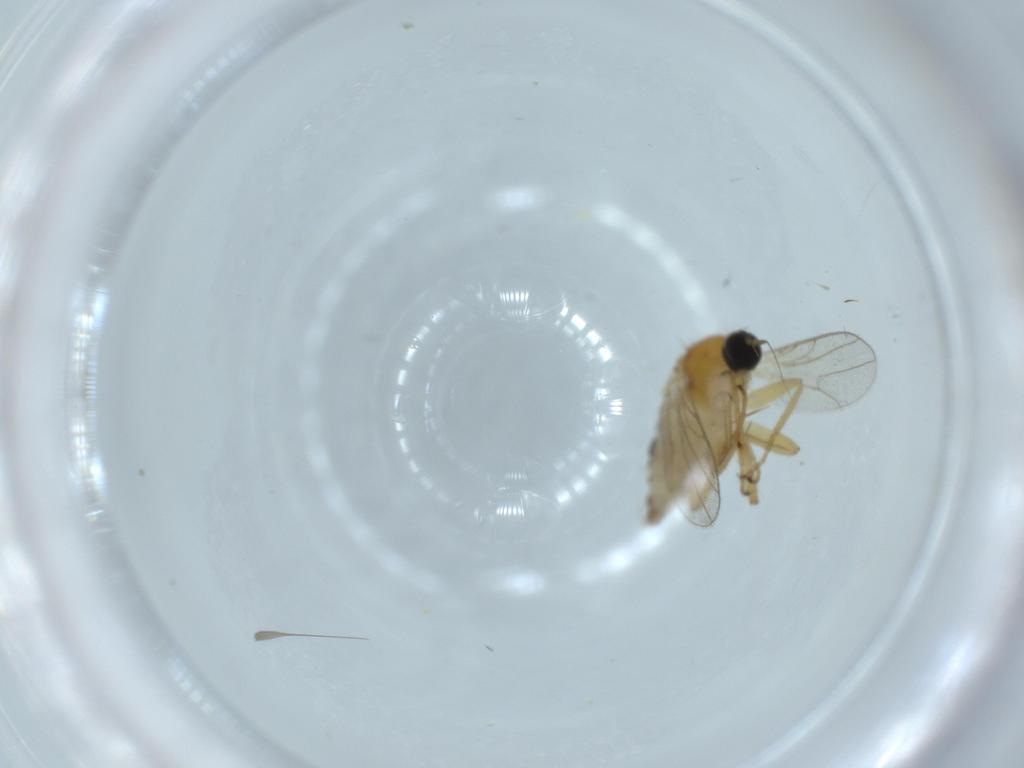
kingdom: Animalia
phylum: Arthropoda
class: Insecta
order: Diptera
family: Hybotidae
